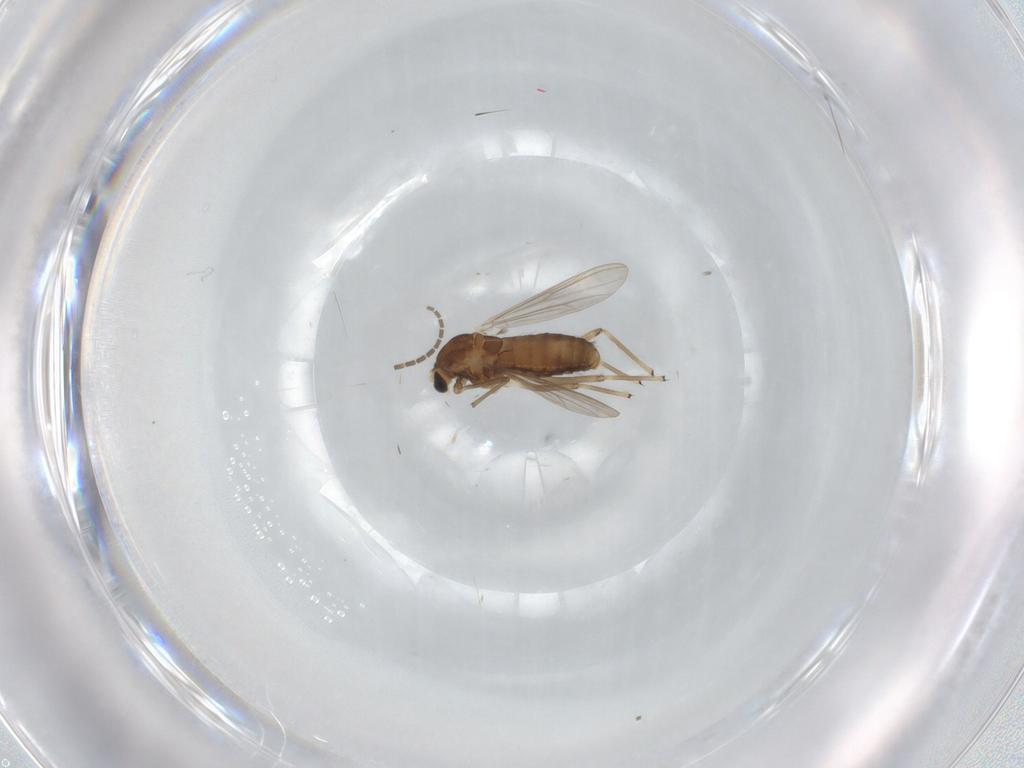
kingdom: Animalia
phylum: Arthropoda
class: Insecta
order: Diptera
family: Chironomidae
